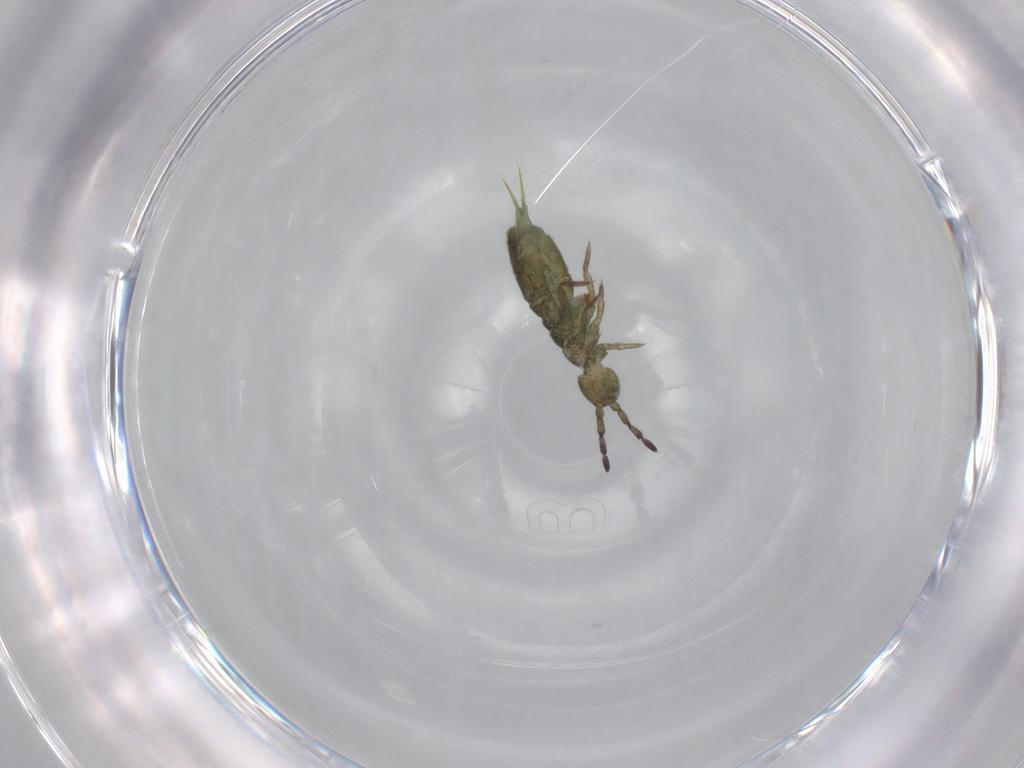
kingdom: Animalia
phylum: Arthropoda
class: Collembola
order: Entomobryomorpha
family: Isotomidae
